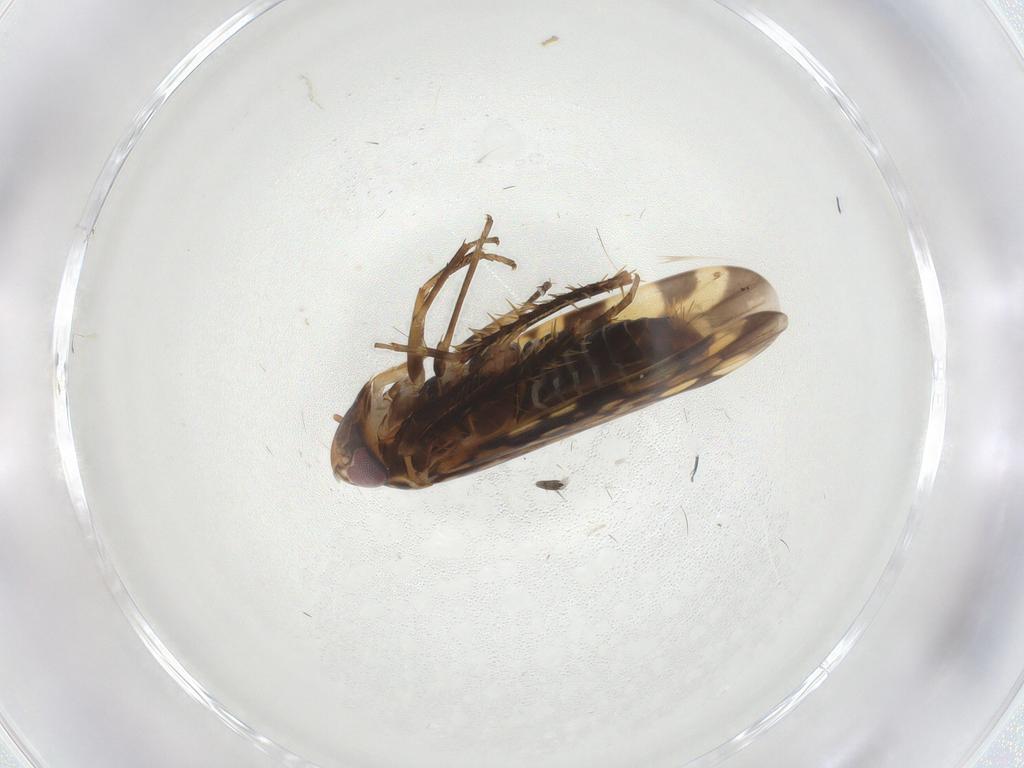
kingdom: Animalia
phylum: Arthropoda
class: Insecta
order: Hemiptera
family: Cicadellidae
